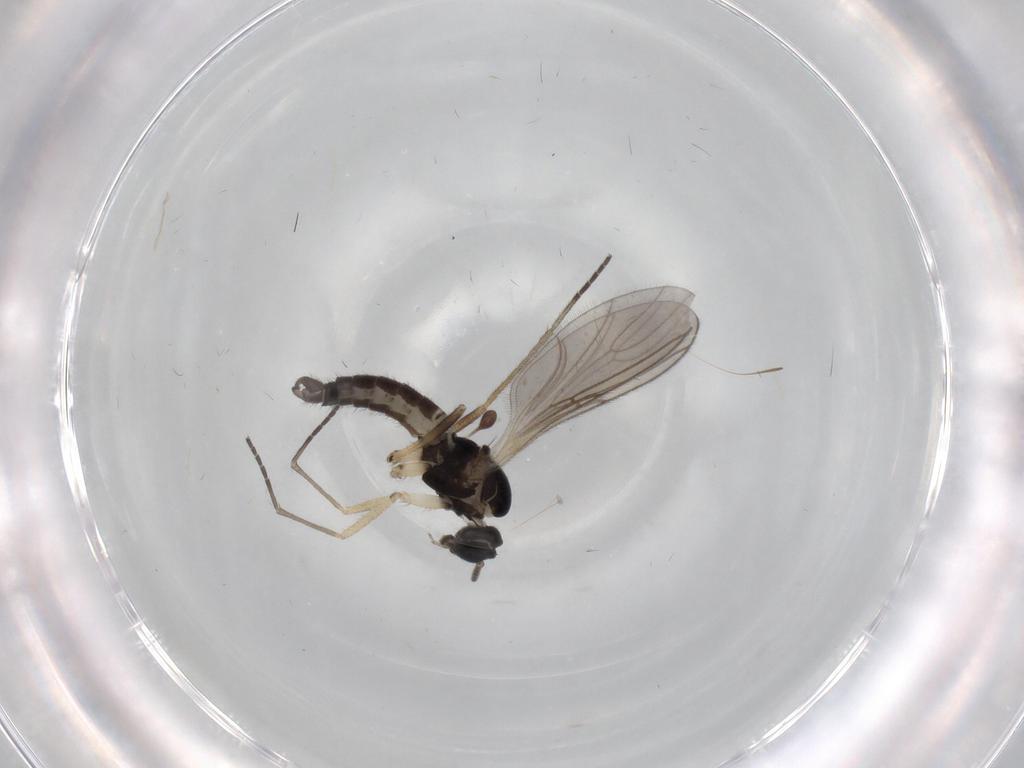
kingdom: Animalia
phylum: Arthropoda
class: Insecta
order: Diptera
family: Sciaridae
